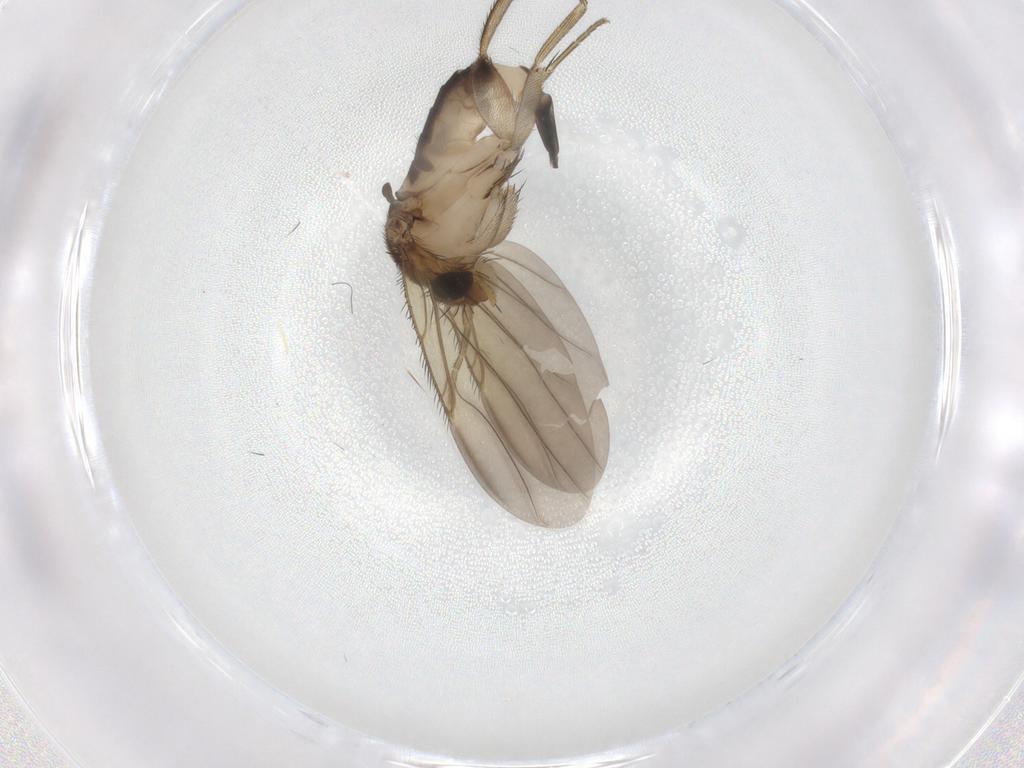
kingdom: Animalia
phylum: Arthropoda
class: Insecta
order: Diptera
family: Phoridae
